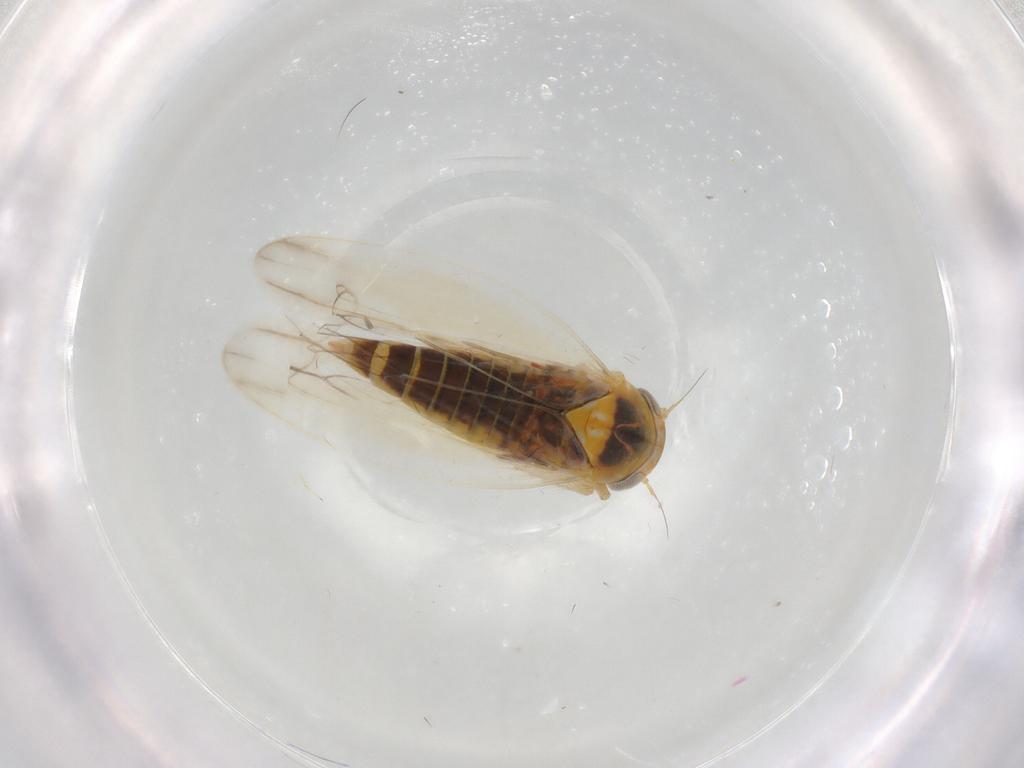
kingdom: Animalia
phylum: Arthropoda
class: Insecta
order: Hemiptera
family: Cicadellidae
